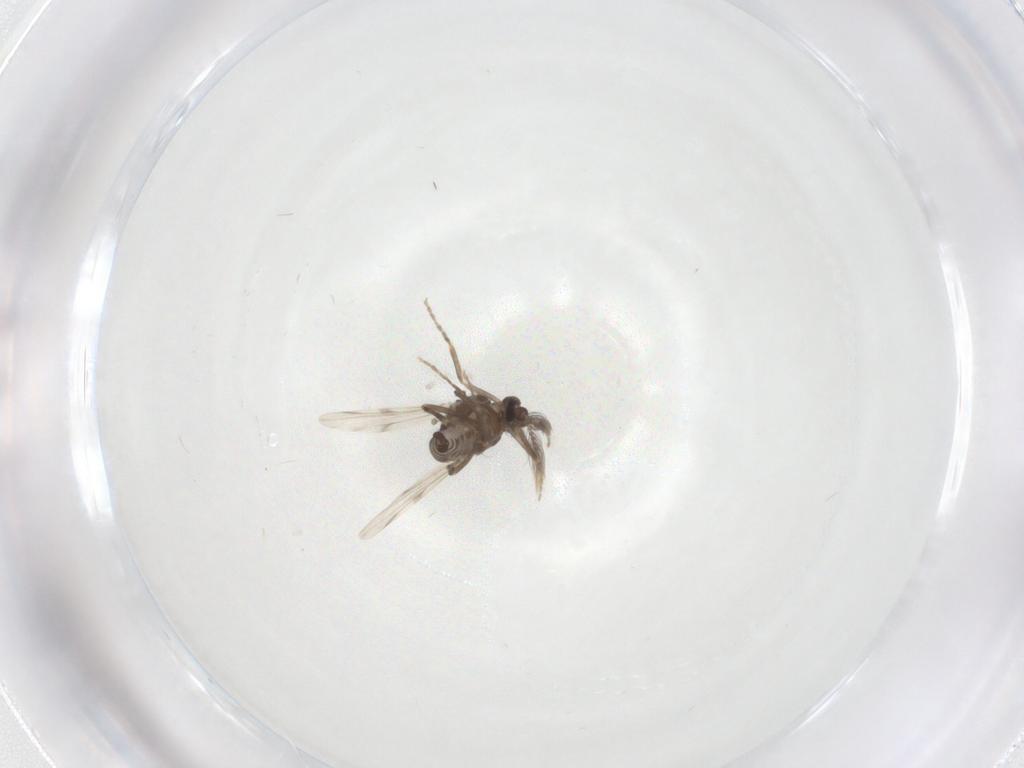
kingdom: Animalia
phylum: Arthropoda
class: Insecta
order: Diptera
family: Ceratopogonidae
